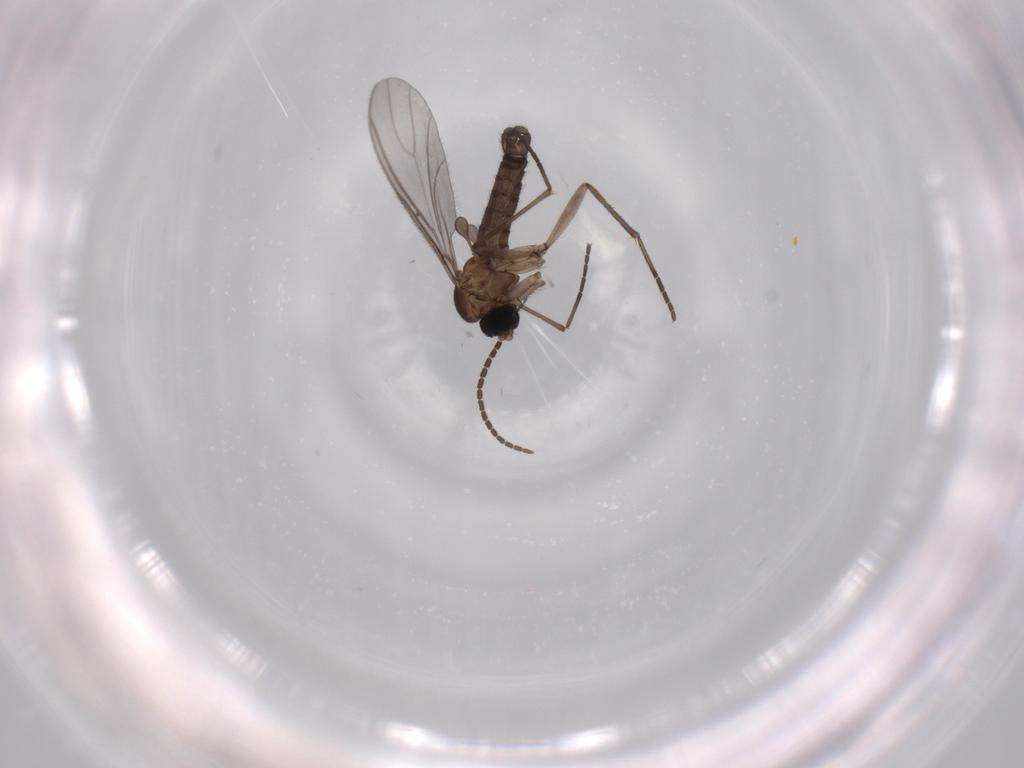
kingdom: Animalia
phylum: Arthropoda
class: Insecta
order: Diptera
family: Sciaridae
